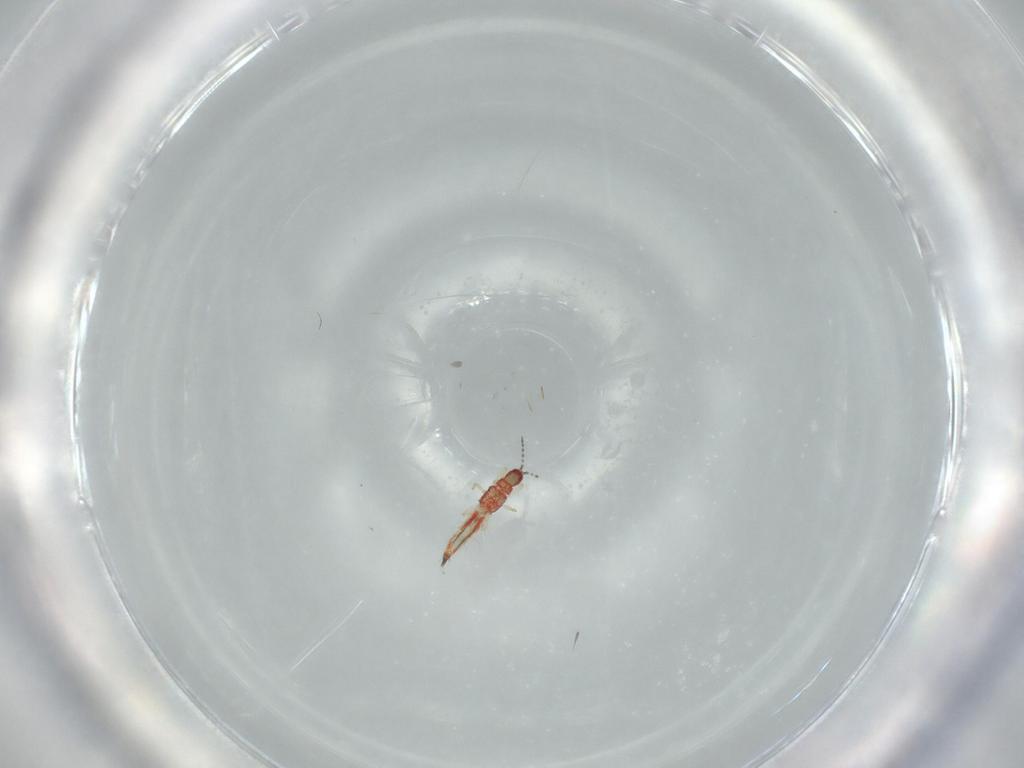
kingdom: Animalia
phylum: Arthropoda
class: Insecta
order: Thysanoptera
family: Phlaeothripidae
